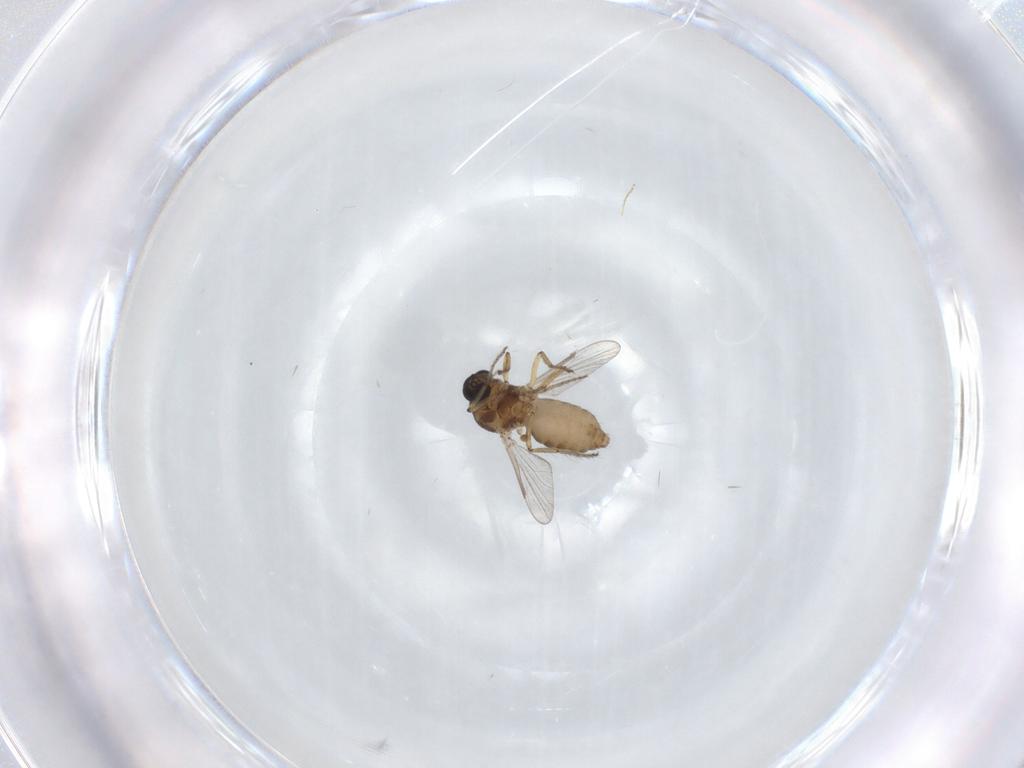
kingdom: Animalia
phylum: Arthropoda
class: Insecta
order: Diptera
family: Ceratopogonidae
